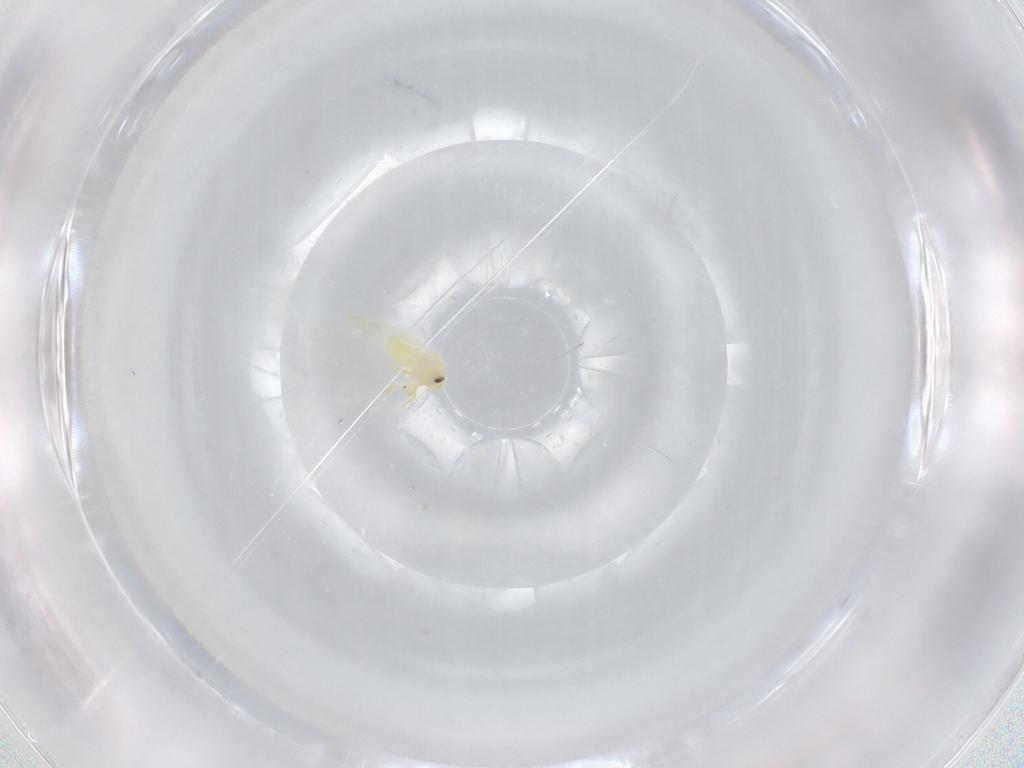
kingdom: Animalia
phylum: Arthropoda
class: Insecta
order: Hemiptera
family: Aleyrodidae
